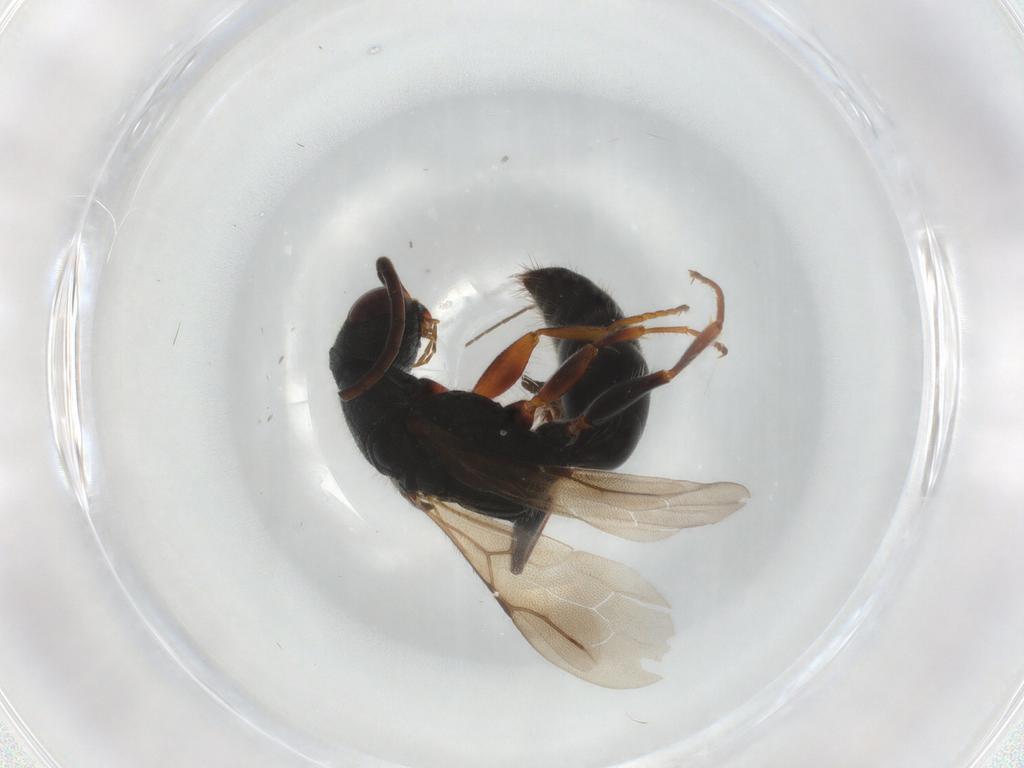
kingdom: Animalia
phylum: Arthropoda
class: Insecta
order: Hymenoptera
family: Bethylidae
